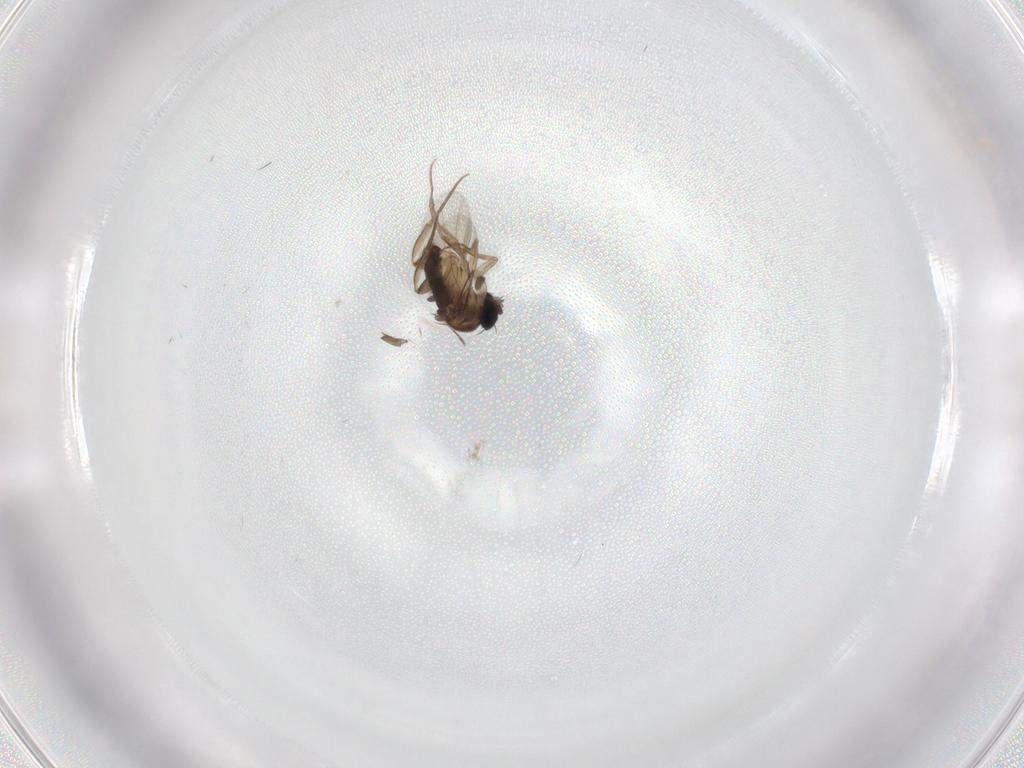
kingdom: Animalia
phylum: Arthropoda
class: Insecta
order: Diptera
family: Phoridae
